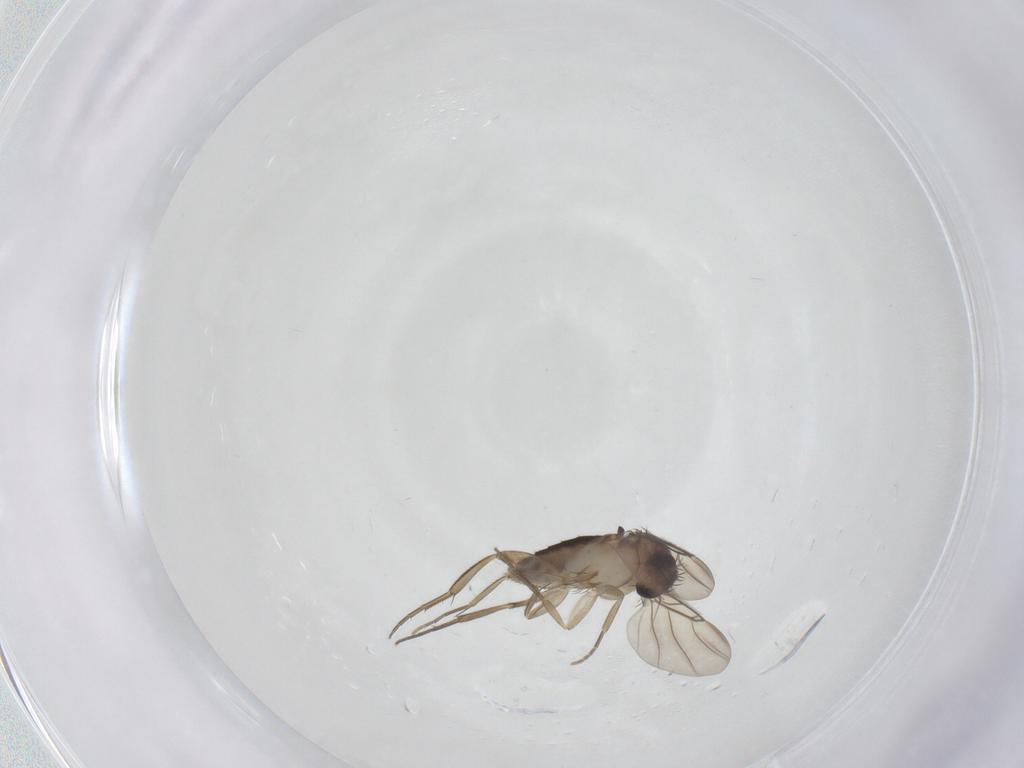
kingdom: Animalia
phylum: Arthropoda
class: Insecta
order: Diptera
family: Phoridae
